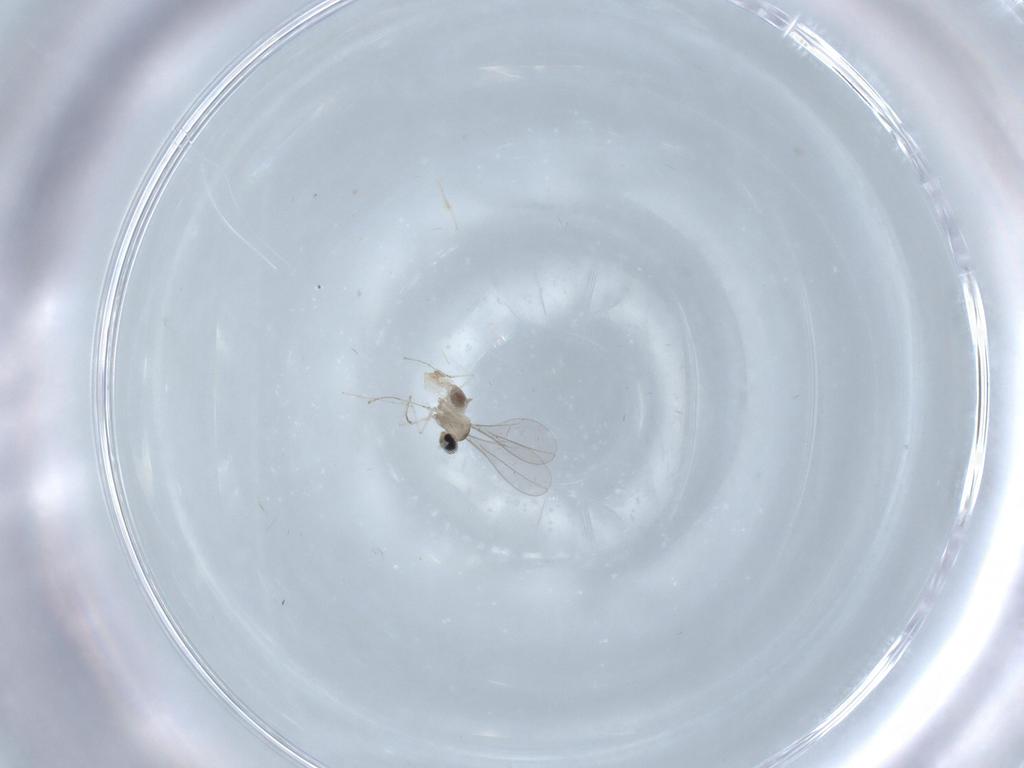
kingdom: Animalia
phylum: Arthropoda
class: Insecta
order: Diptera
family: Cecidomyiidae
